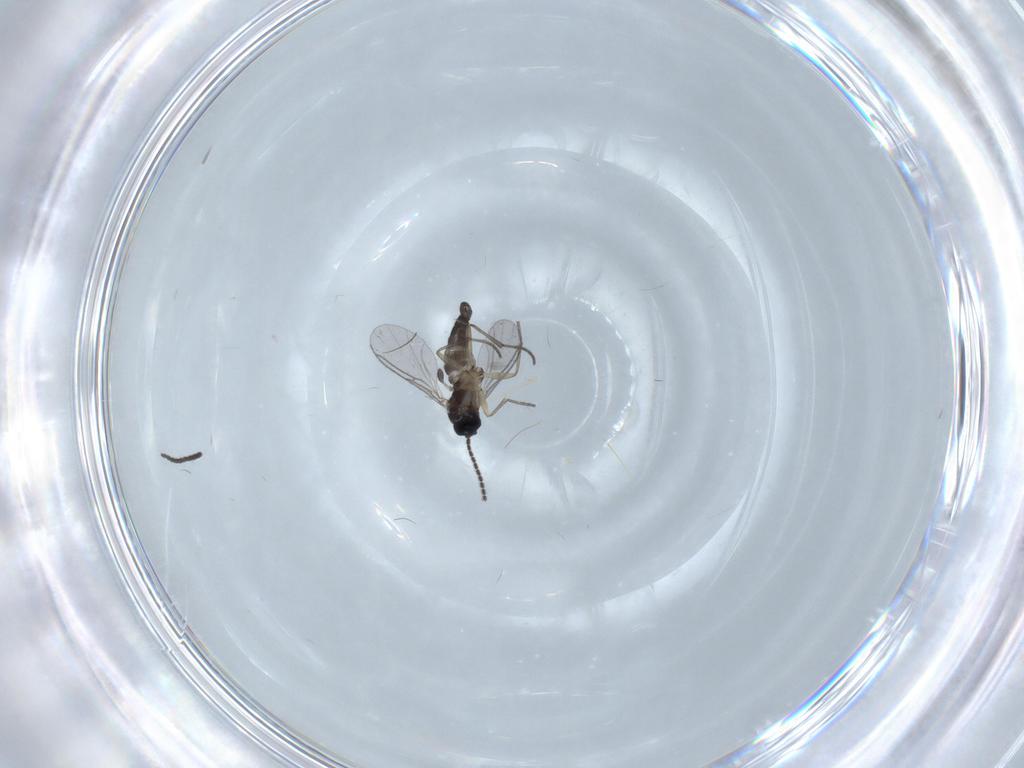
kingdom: Animalia
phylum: Arthropoda
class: Insecta
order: Diptera
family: Sciaridae
